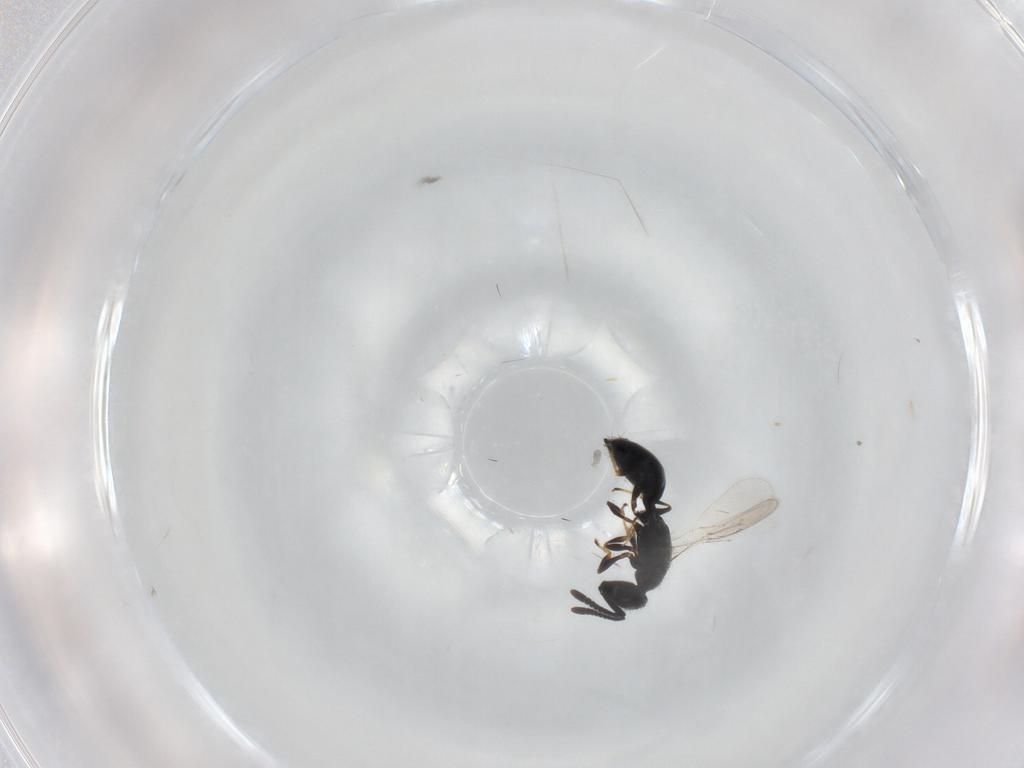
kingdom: Animalia
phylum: Arthropoda
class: Insecta
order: Hymenoptera
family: Spalangiidae
